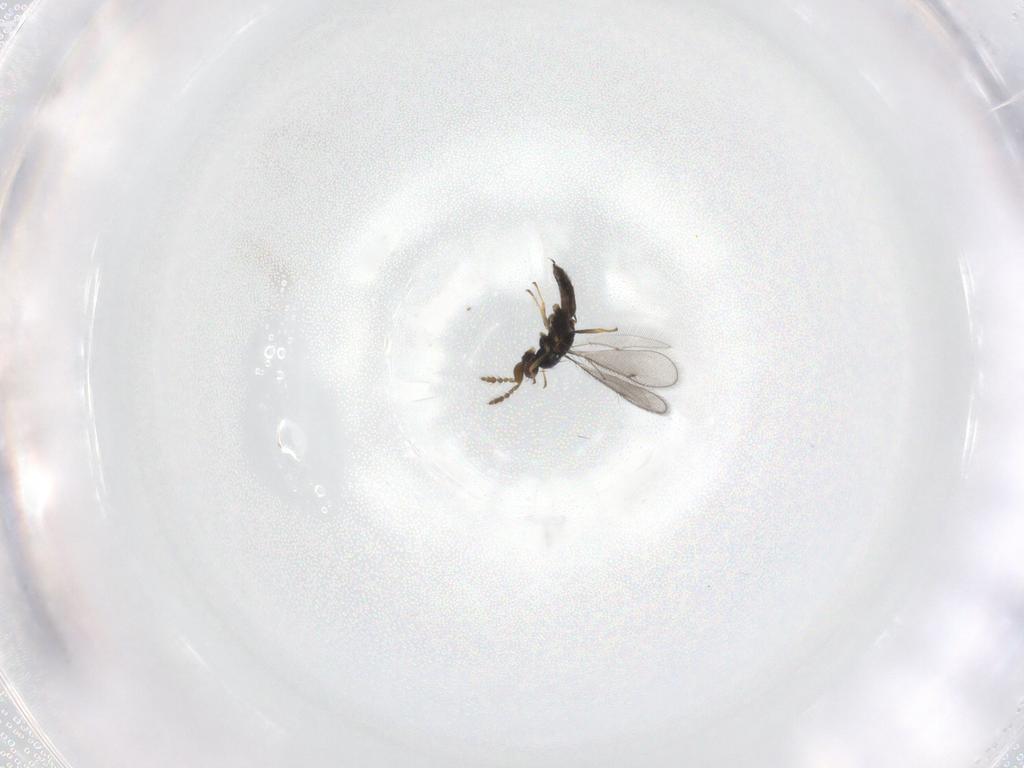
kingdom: Animalia
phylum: Arthropoda
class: Insecta
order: Hymenoptera
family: Eulophidae
